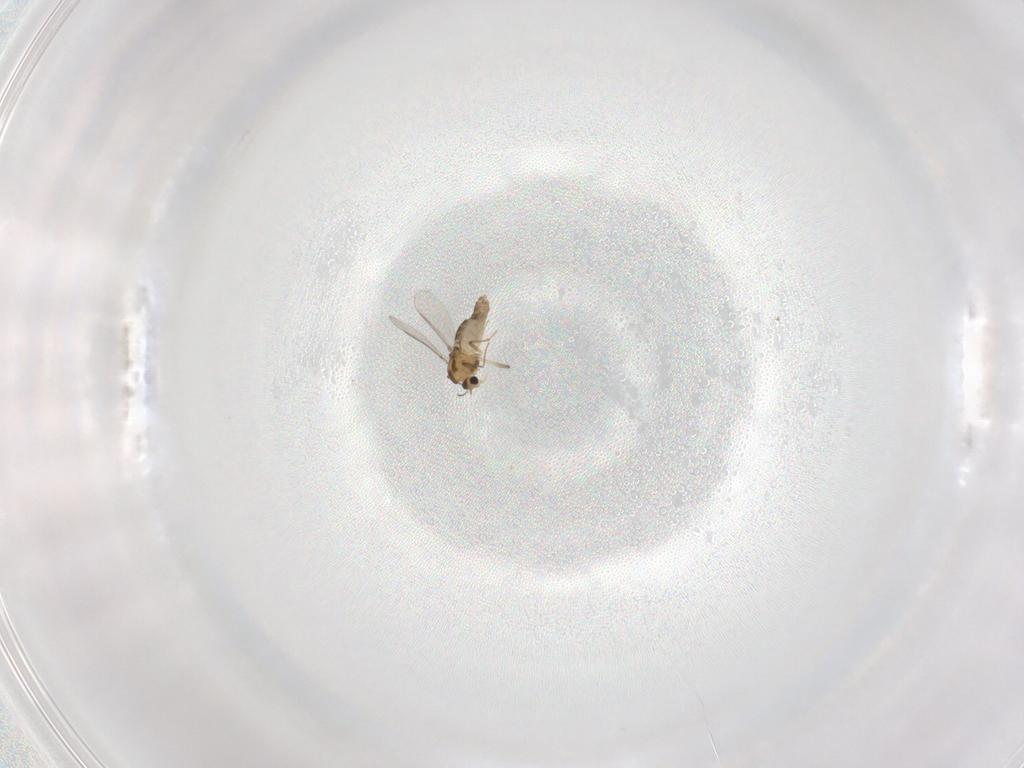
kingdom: Animalia
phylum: Arthropoda
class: Insecta
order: Diptera
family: Chironomidae
